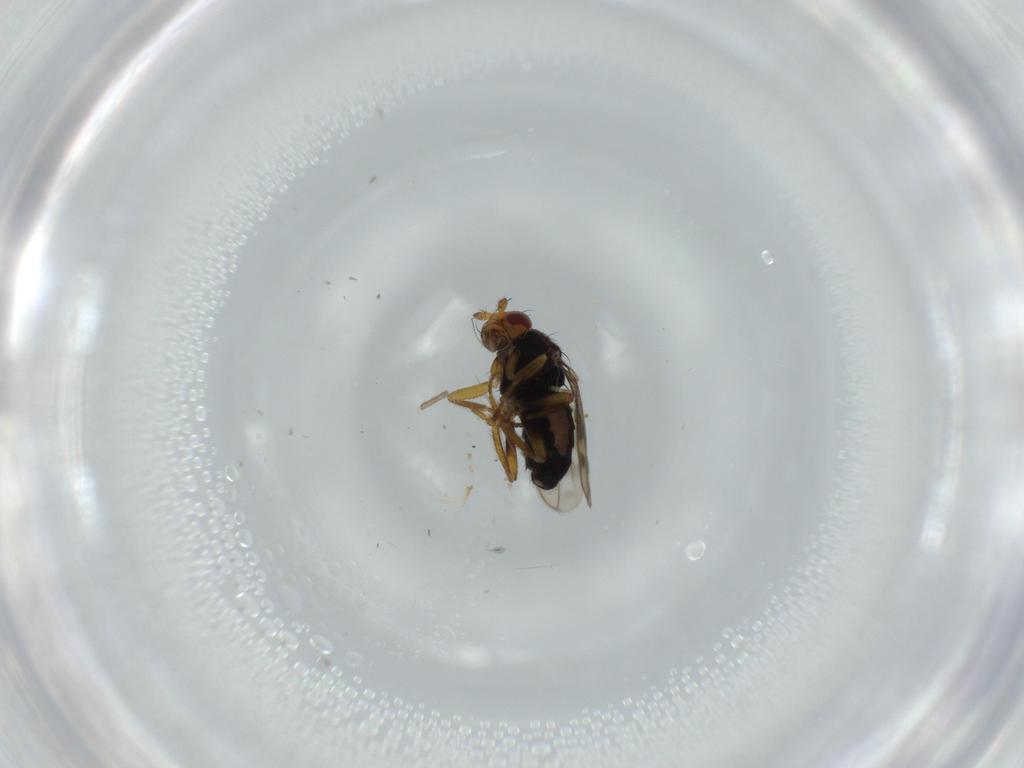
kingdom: Animalia
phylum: Arthropoda
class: Insecta
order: Diptera
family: Sphaeroceridae
